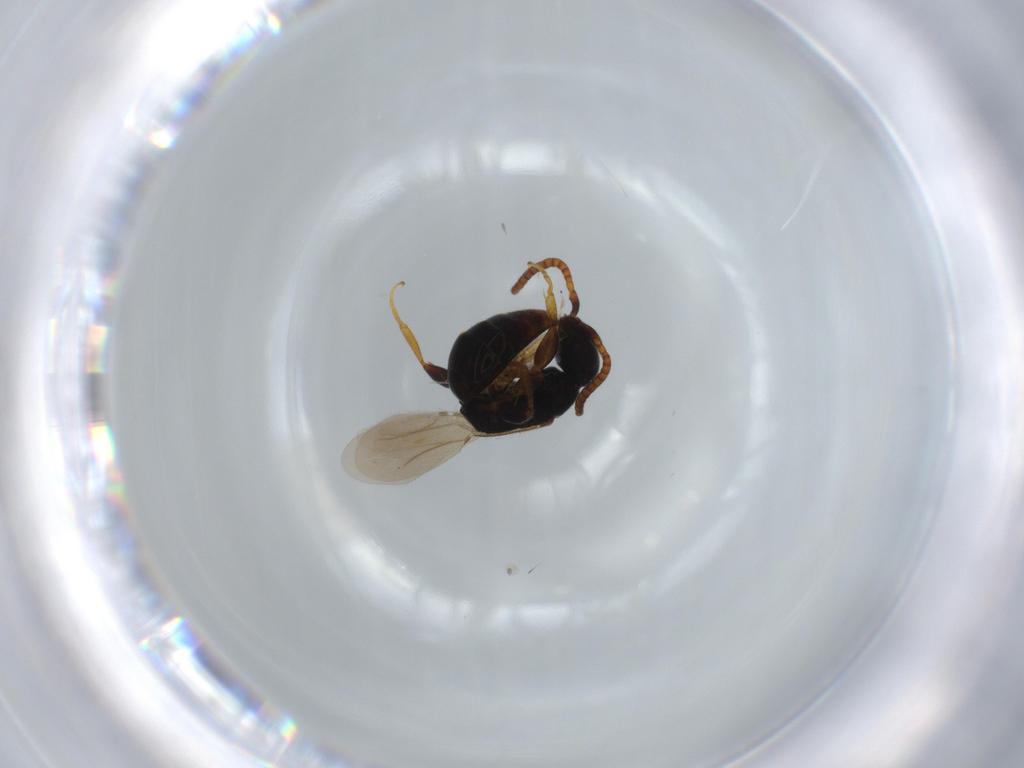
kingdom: Animalia
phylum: Arthropoda
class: Insecta
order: Hymenoptera
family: Bethylidae
